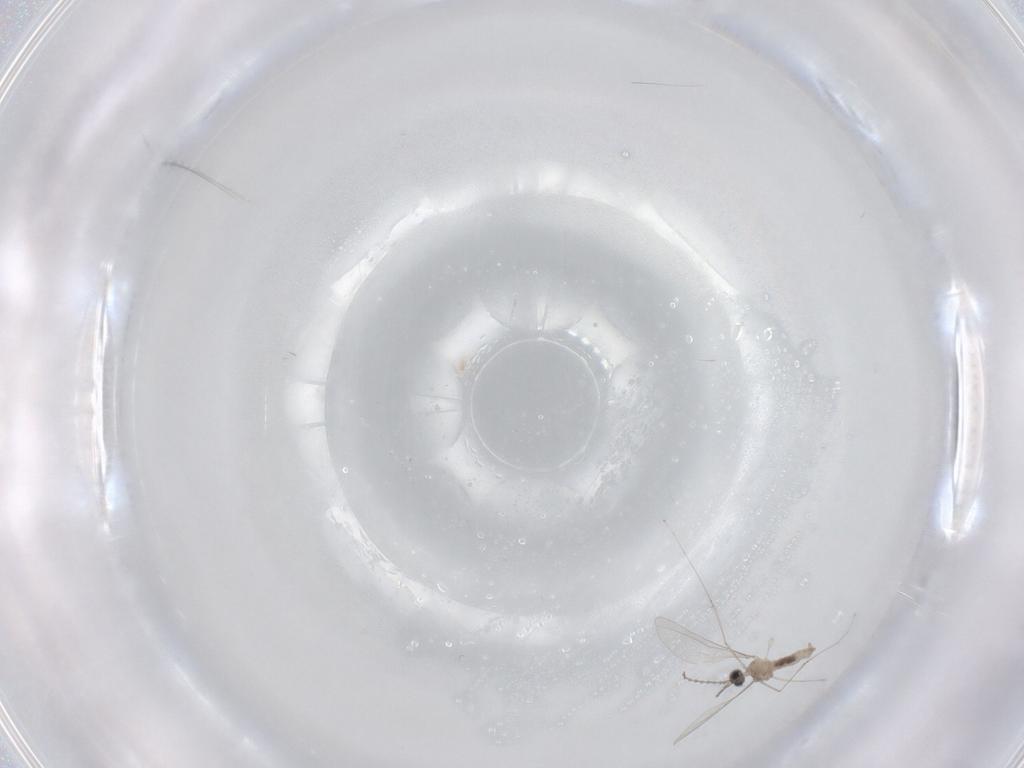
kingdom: Animalia
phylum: Arthropoda
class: Insecta
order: Diptera
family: Cecidomyiidae
